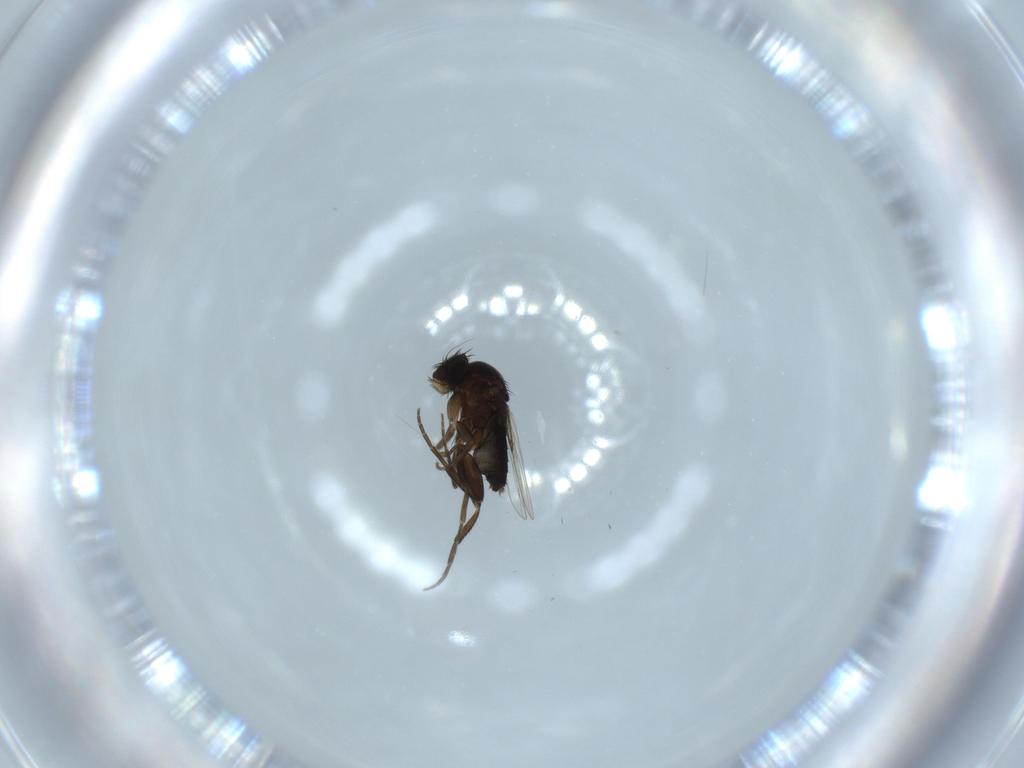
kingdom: Animalia
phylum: Arthropoda
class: Insecta
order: Diptera
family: Phoridae
